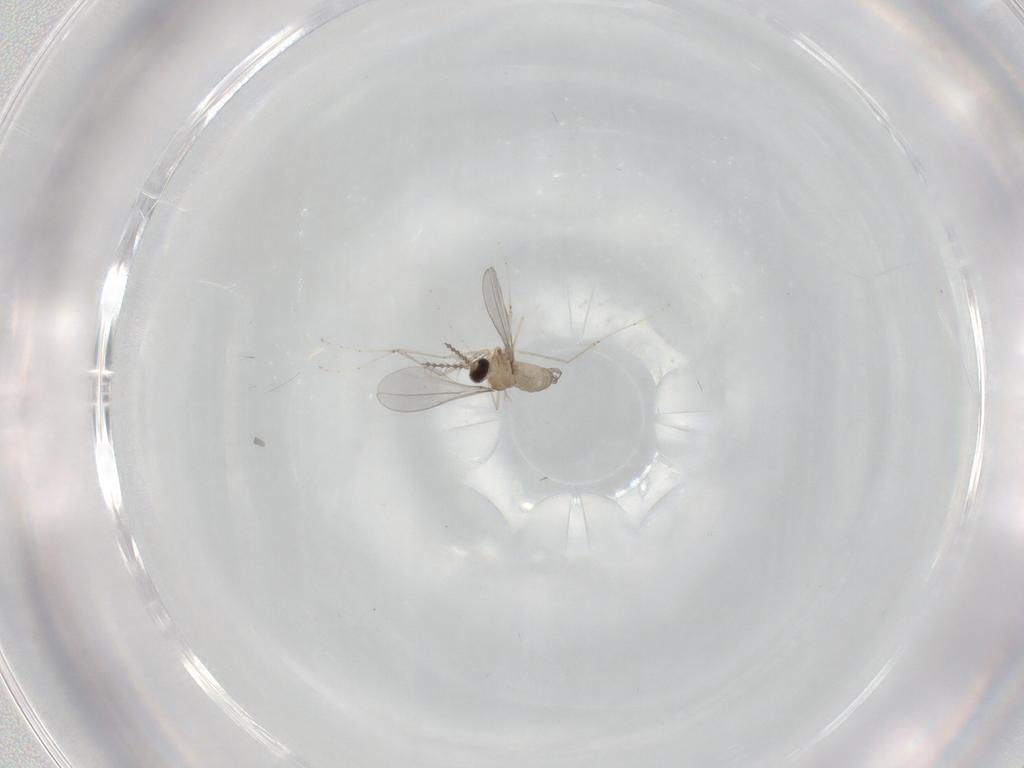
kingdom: Animalia
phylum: Arthropoda
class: Insecta
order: Diptera
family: Cecidomyiidae
